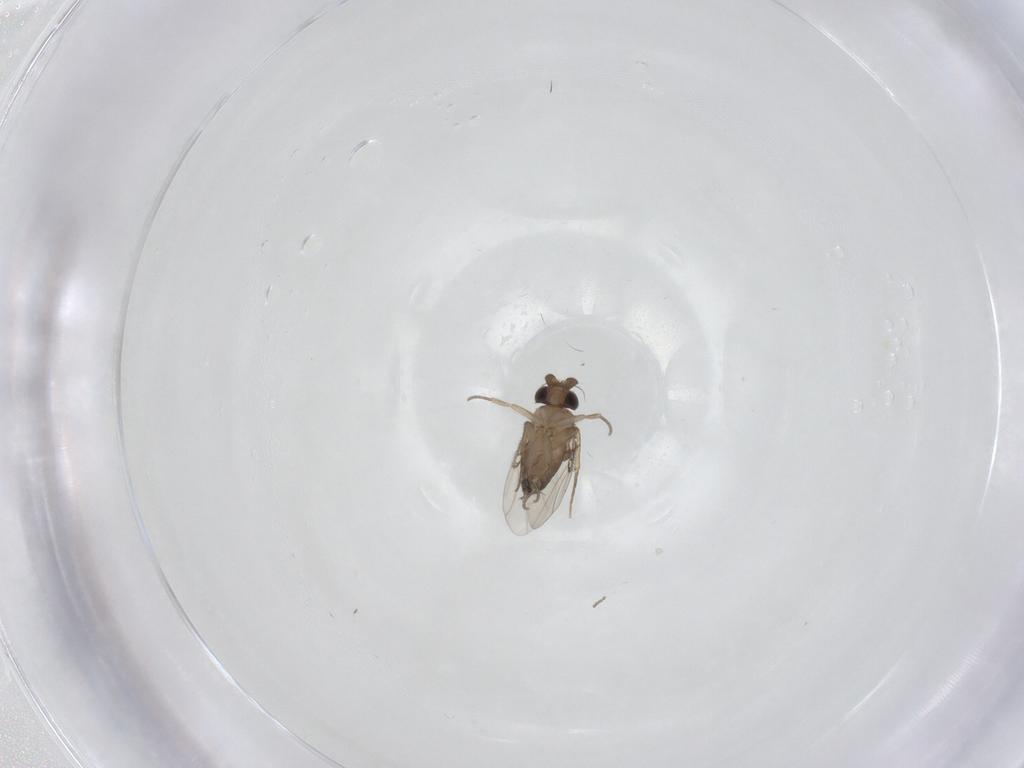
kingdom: Animalia
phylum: Arthropoda
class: Insecta
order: Diptera
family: Phoridae
